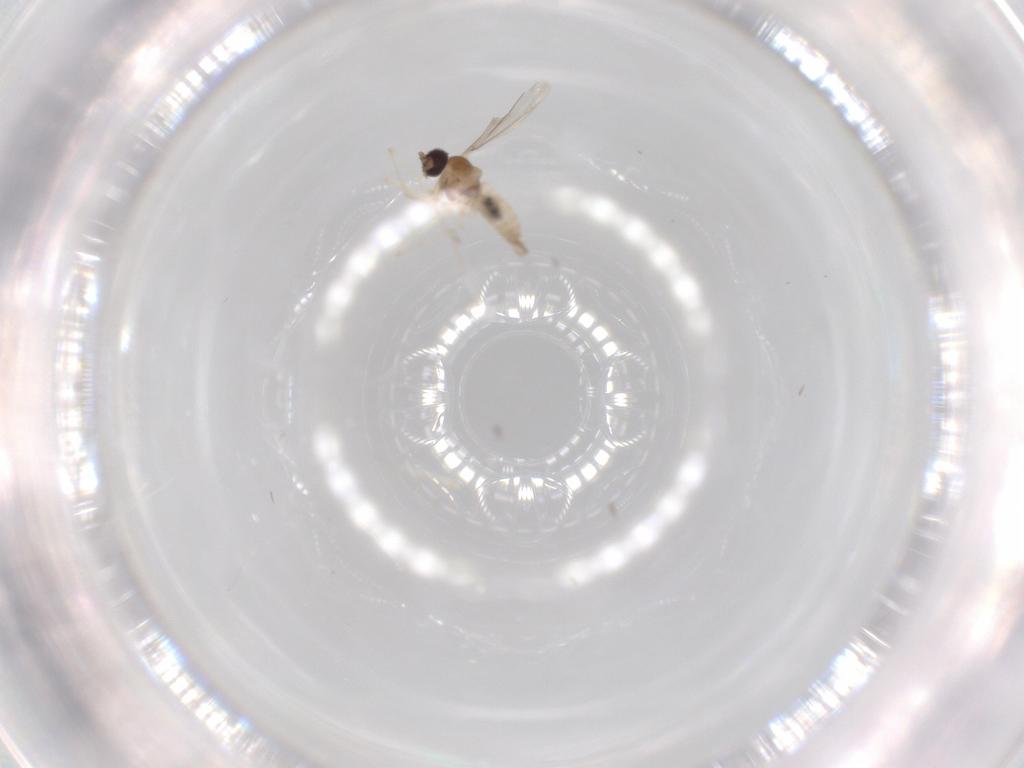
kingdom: Animalia
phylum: Arthropoda
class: Insecta
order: Diptera
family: Cecidomyiidae
